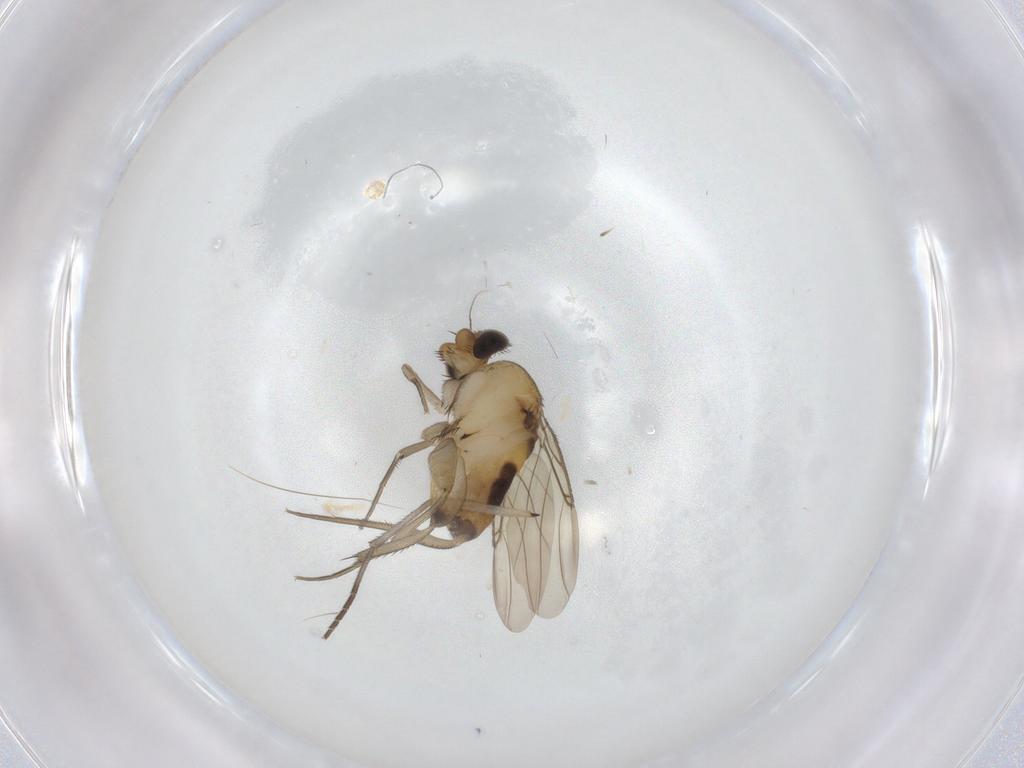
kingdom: Animalia
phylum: Arthropoda
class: Insecta
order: Diptera
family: Phoridae
